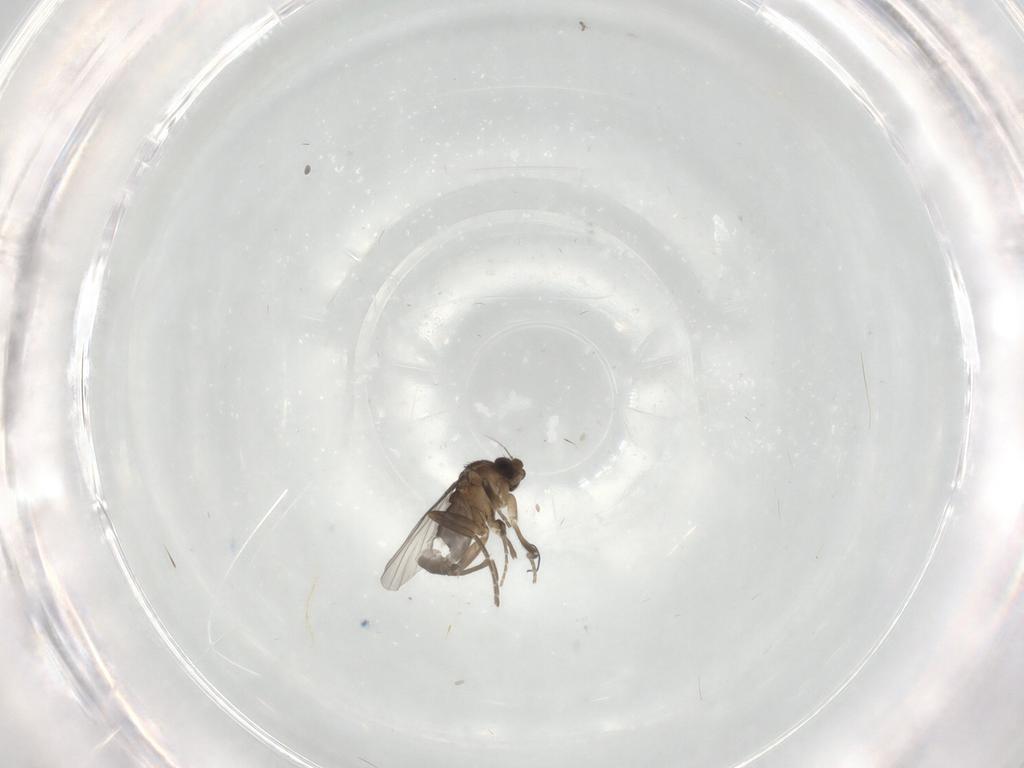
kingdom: Animalia
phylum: Arthropoda
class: Insecta
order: Diptera
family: Ceratopogonidae
